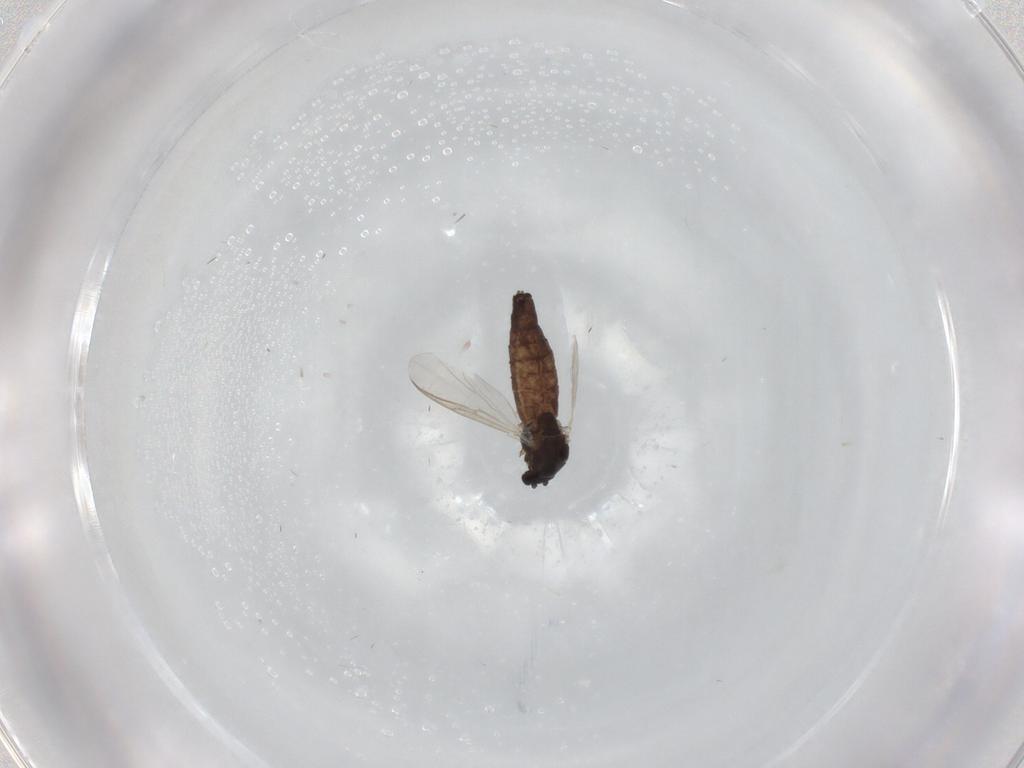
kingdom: Animalia
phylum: Arthropoda
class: Insecta
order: Diptera
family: Chironomidae
